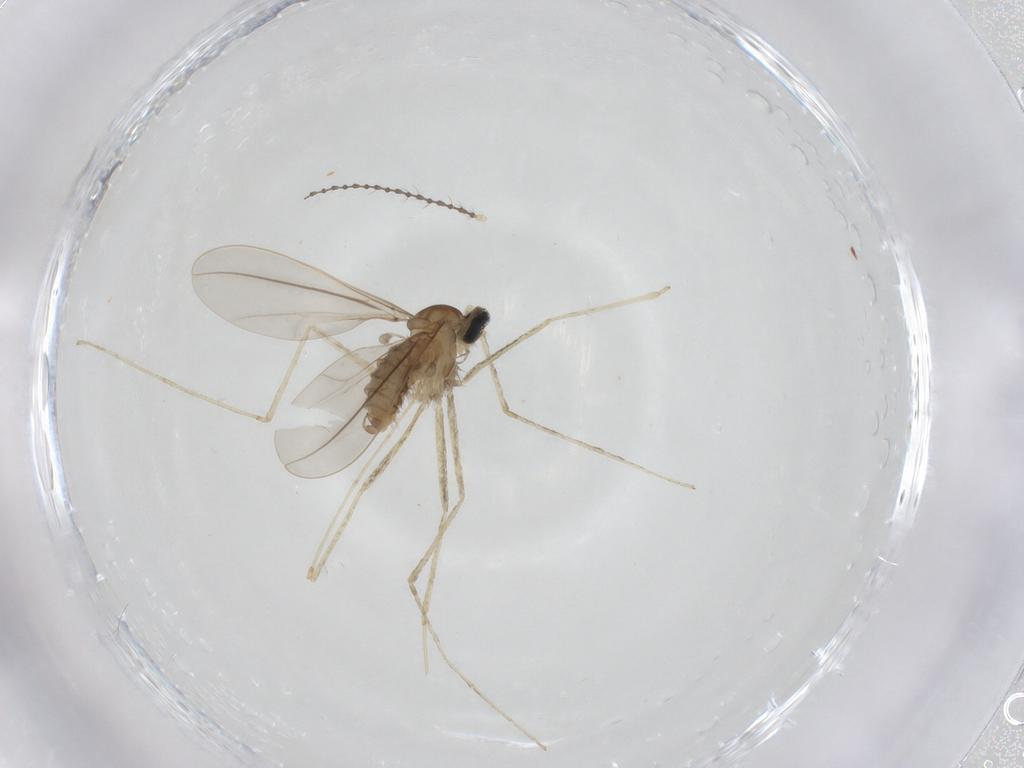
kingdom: Animalia
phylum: Arthropoda
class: Insecta
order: Diptera
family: Cecidomyiidae
